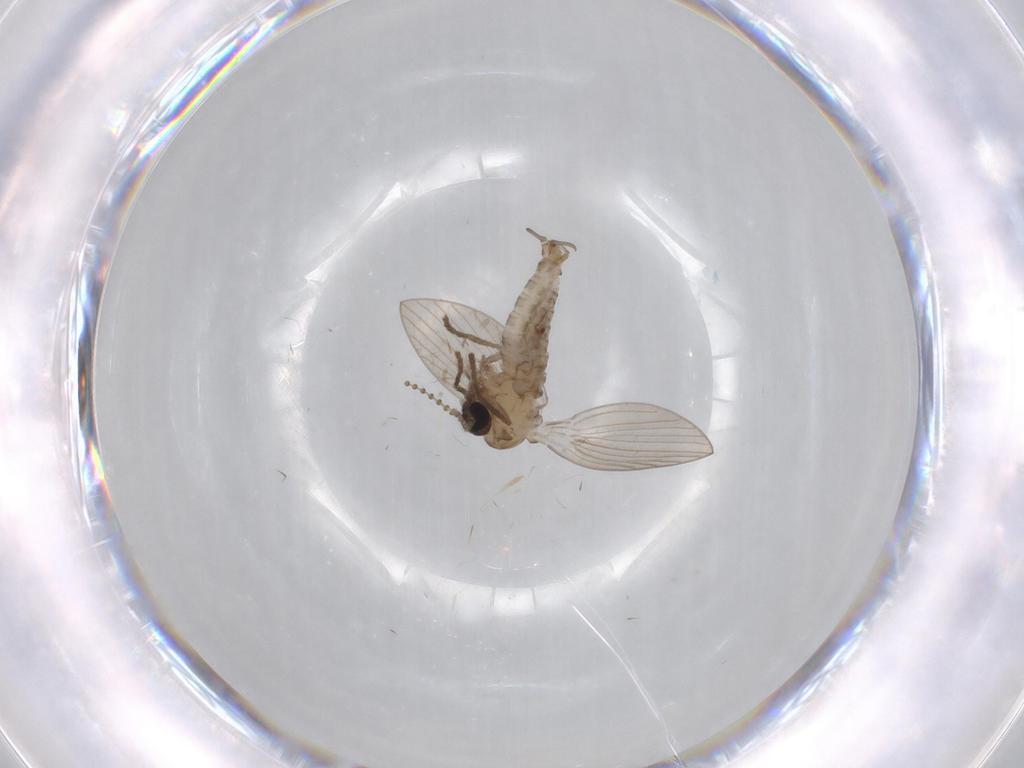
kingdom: Animalia
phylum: Arthropoda
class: Insecta
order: Diptera
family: Psychodidae
